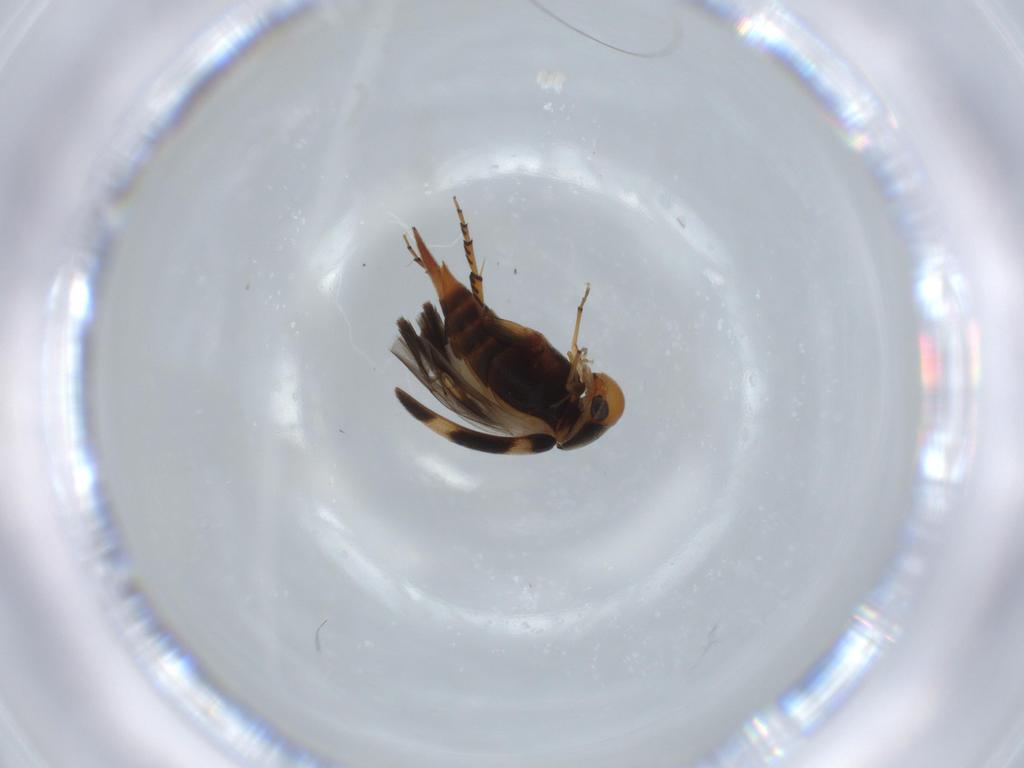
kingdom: Animalia
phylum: Arthropoda
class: Insecta
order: Coleoptera
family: Mordellidae
